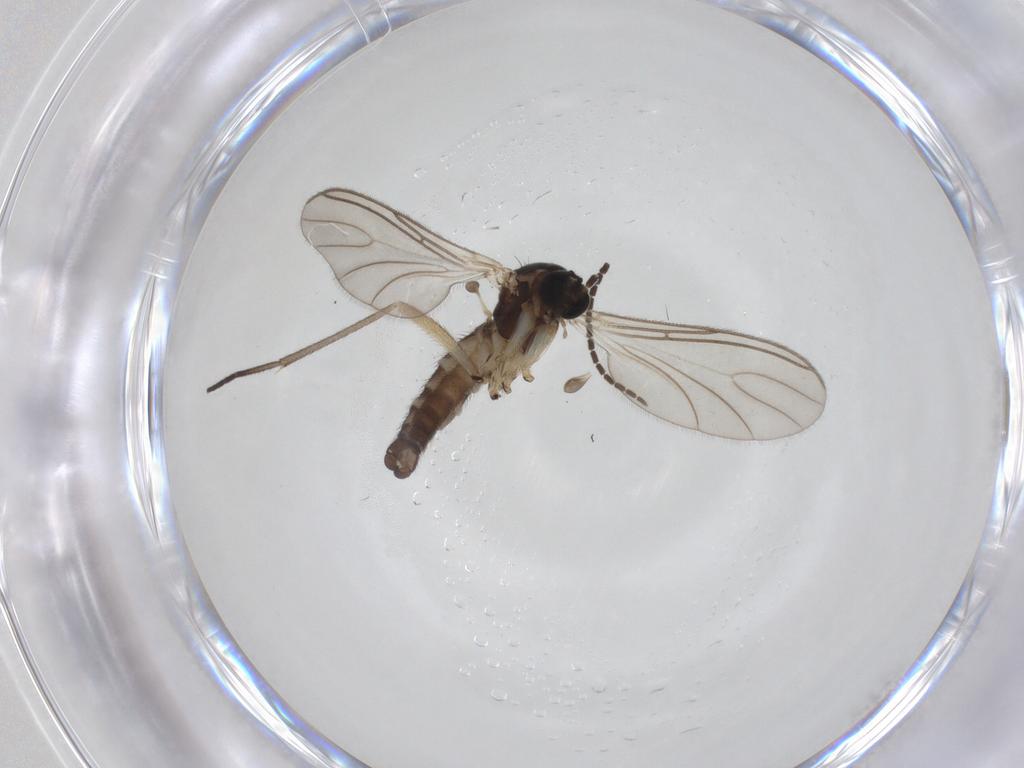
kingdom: Animalia
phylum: Arthropoda
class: Insecta
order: Diptera
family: Sciaridae
